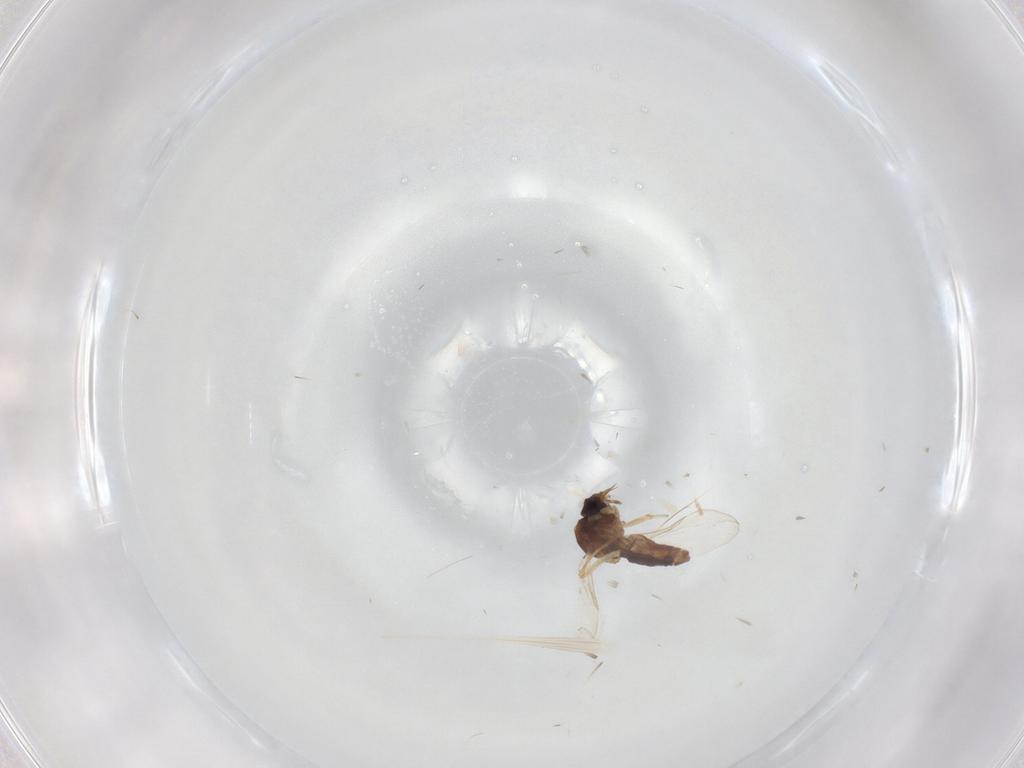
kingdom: Animalia
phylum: Arthropoda
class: Insecta
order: Diptera
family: Ceratopogonidae
